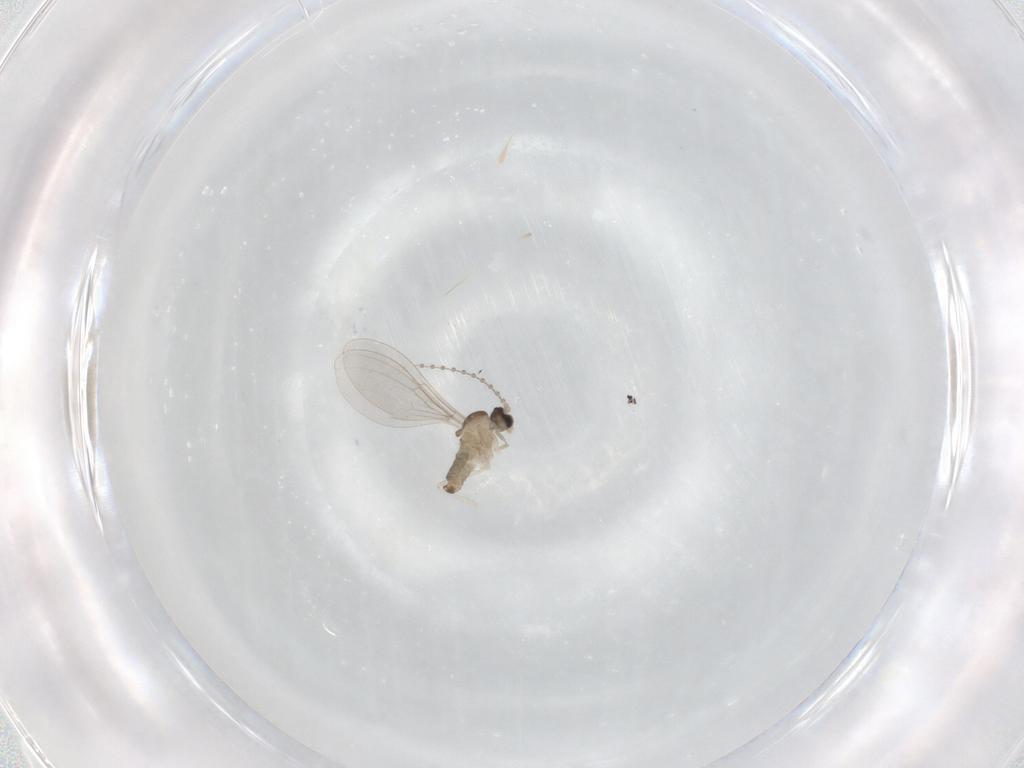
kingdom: Animalia
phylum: Arthropoda
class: Insecta
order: Diptera
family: Cecidomyiidae
